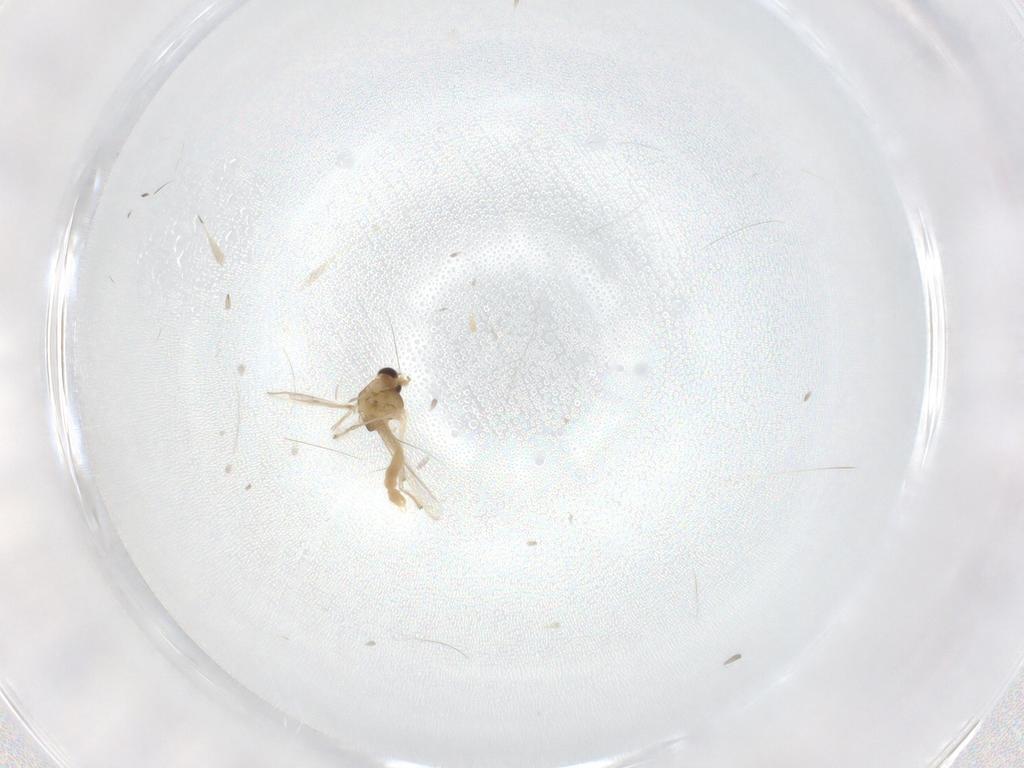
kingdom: Animalia
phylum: Arthropoda
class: Insecta
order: Diptera
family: Chironomidae
